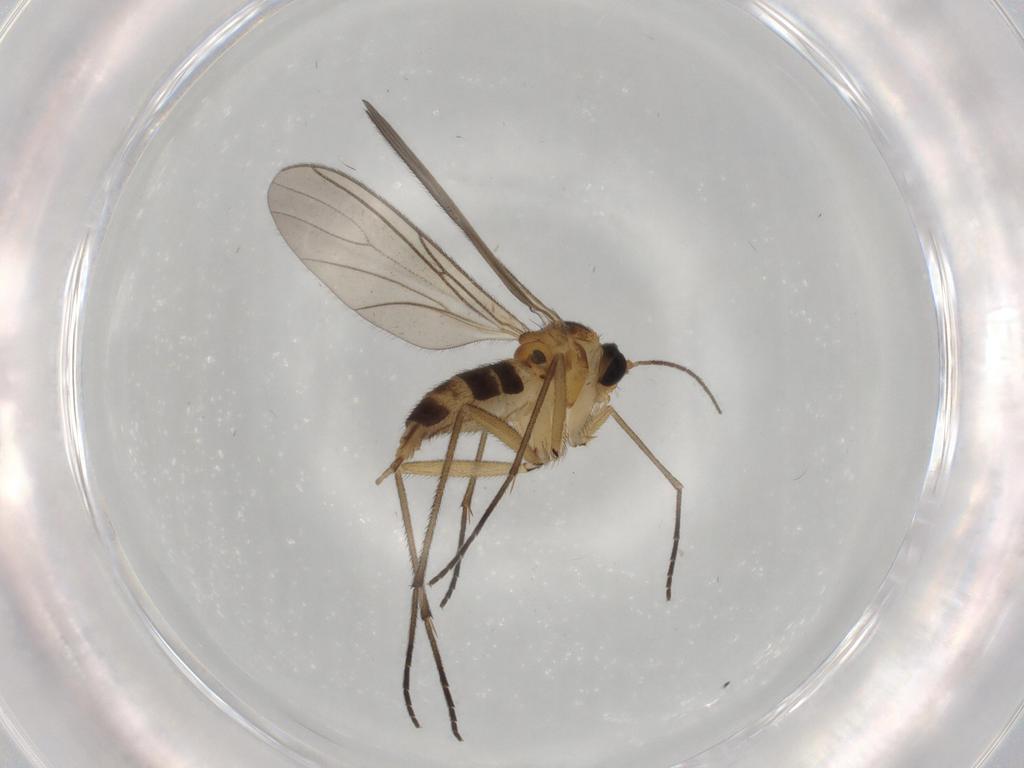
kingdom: Animalia
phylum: Arthropoda
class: Insecta
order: Diptera
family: Sciaridae
